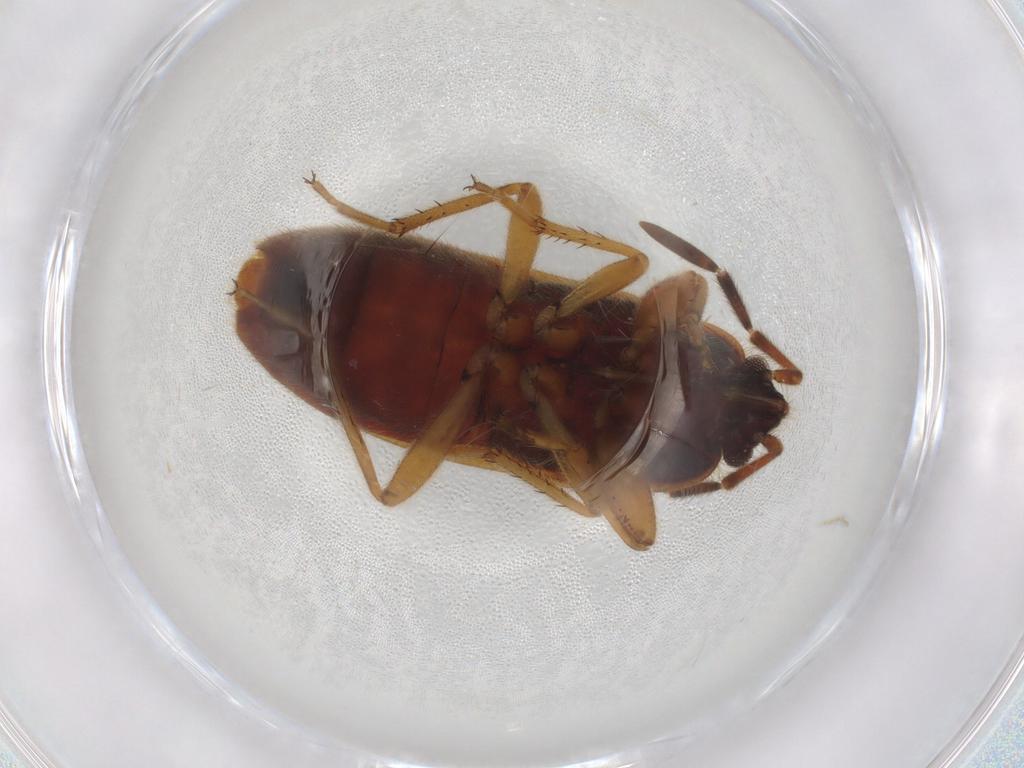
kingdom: Animalia
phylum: Arthropoda
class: Insecta
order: Hemiptera
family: Rhyparochromidae
